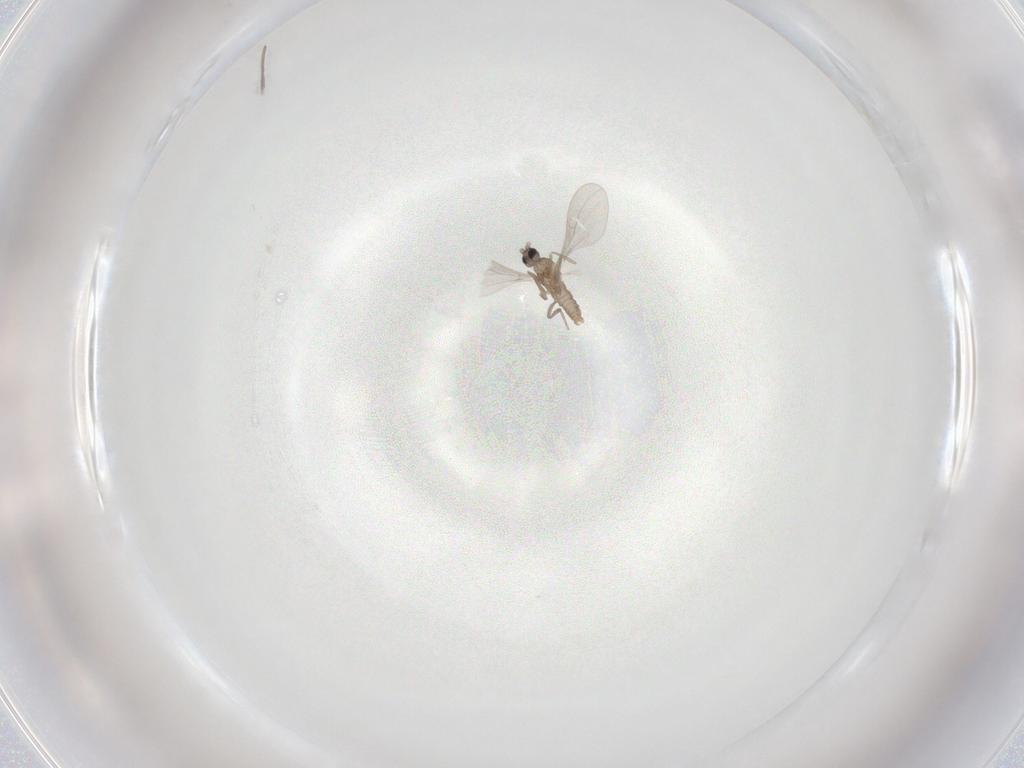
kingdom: Animalia
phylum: Arthropoda
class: Insecta
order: Diptera
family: Cecidomyiidae
